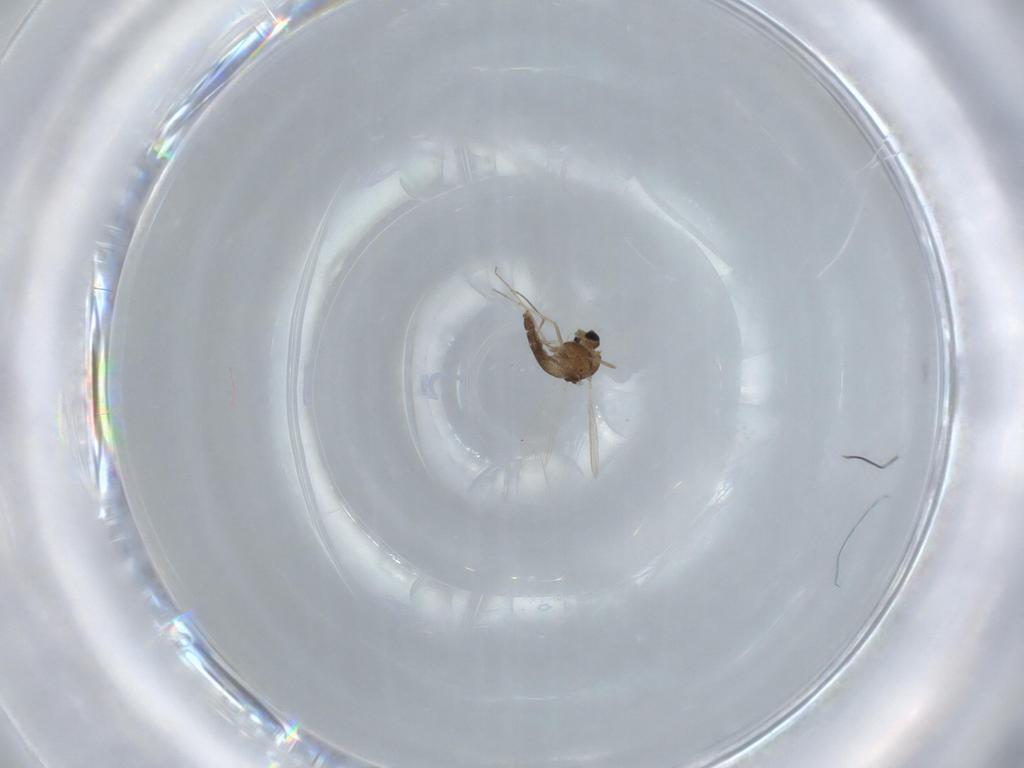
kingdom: Animalia
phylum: Arthropoda
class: Insecta
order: Diptera
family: Chironomidae
